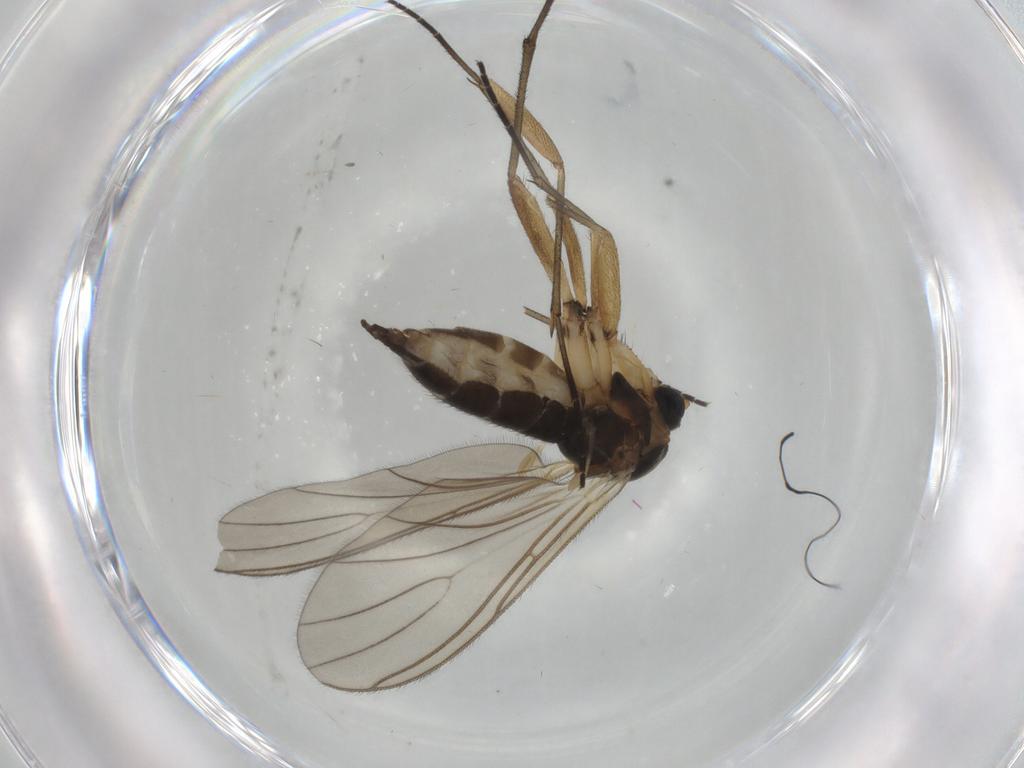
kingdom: Animalia
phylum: Arthropoda
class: Insecta
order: Diptera
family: Sciaridae
